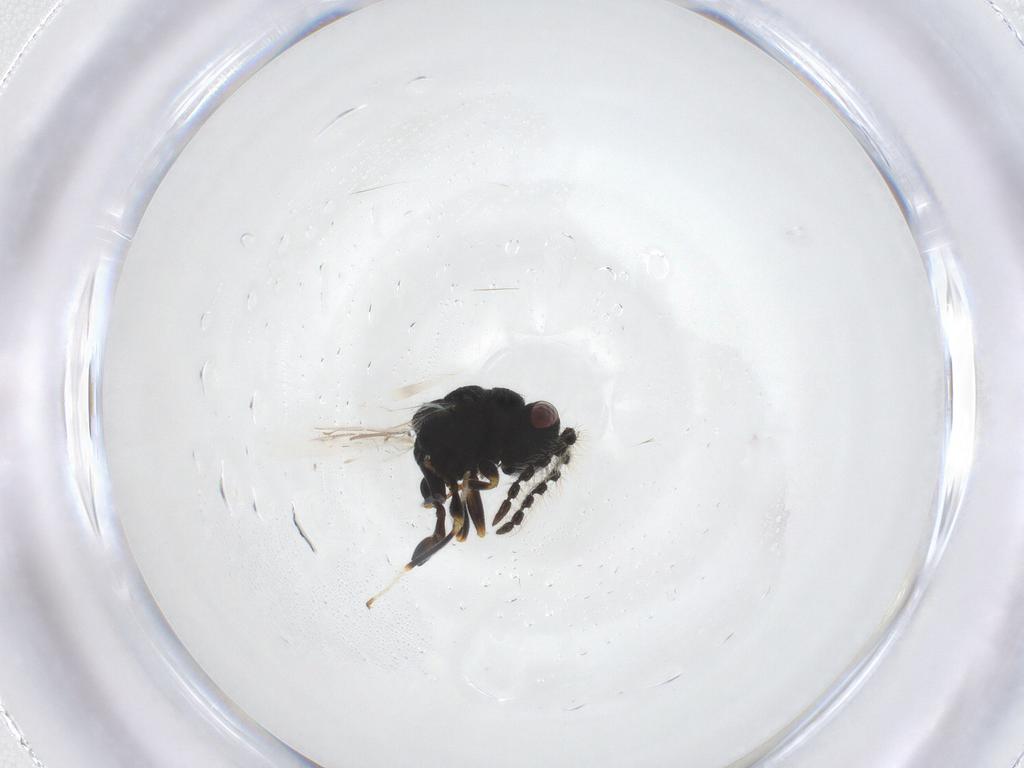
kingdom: Animalia
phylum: Arthropoda
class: Insecta
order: Hymenoptera
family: Eurytomidae
